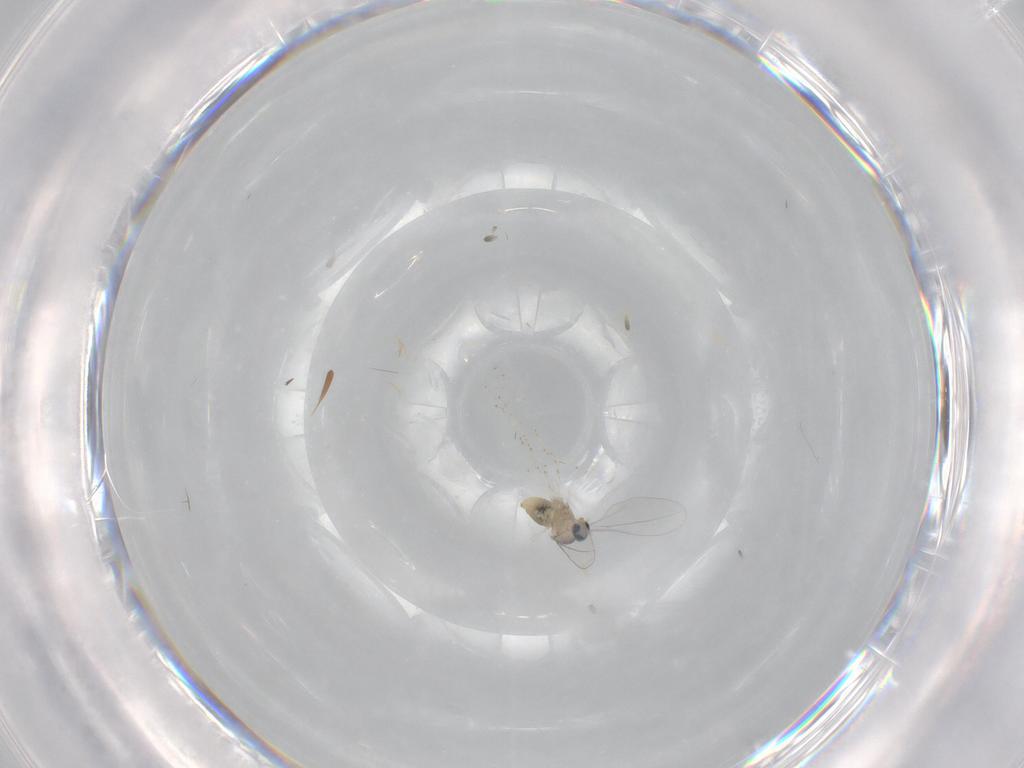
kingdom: Animalia
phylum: Arthropoda
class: Insecta
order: Diptera
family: Cecidomyiidae
